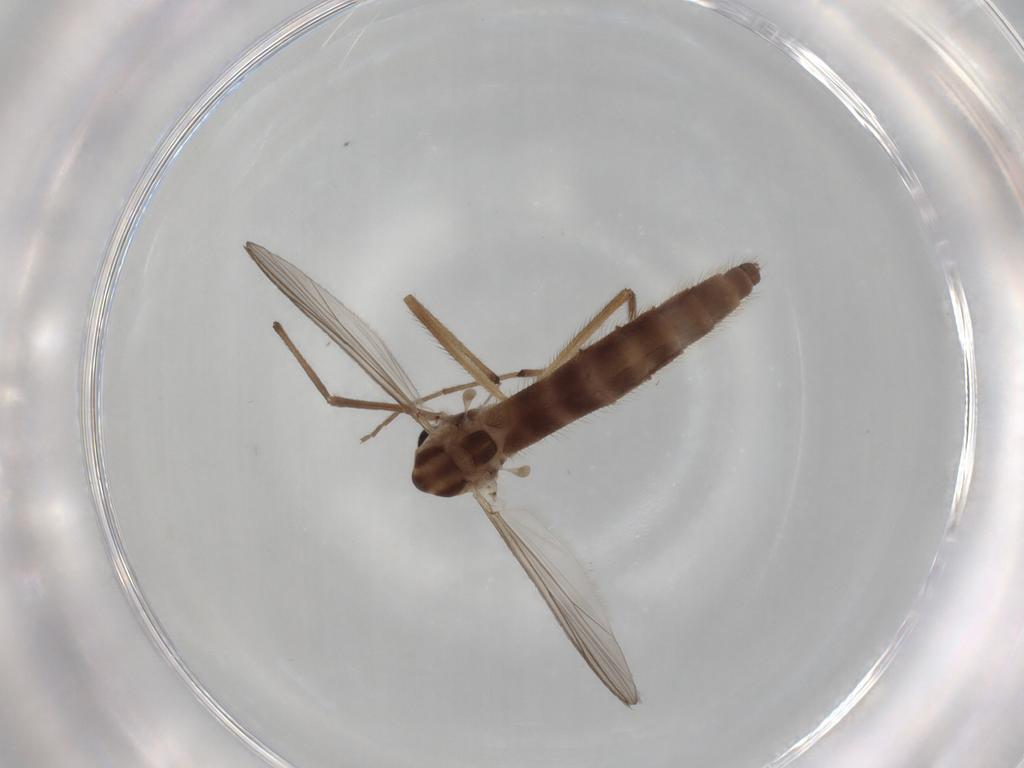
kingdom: Animalia
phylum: Arthropoda
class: Insecta
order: Diptera
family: Chironomidae
